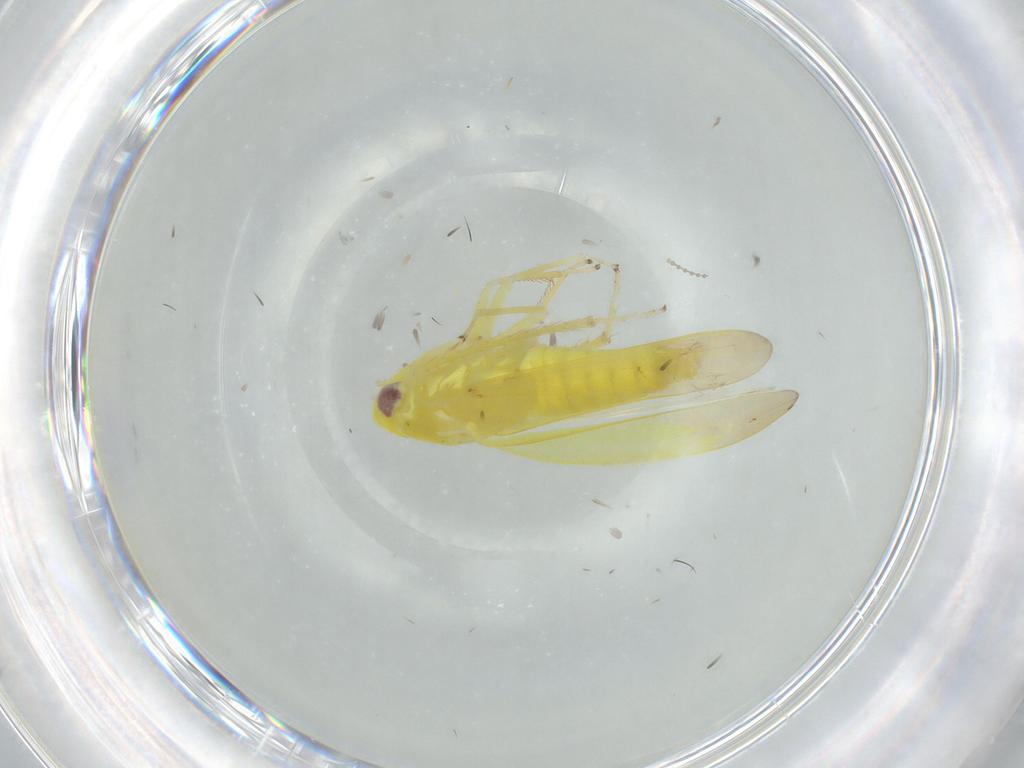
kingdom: Animalia
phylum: Arthropoda
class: Insecta
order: Hemiptera
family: Cicadellidae
